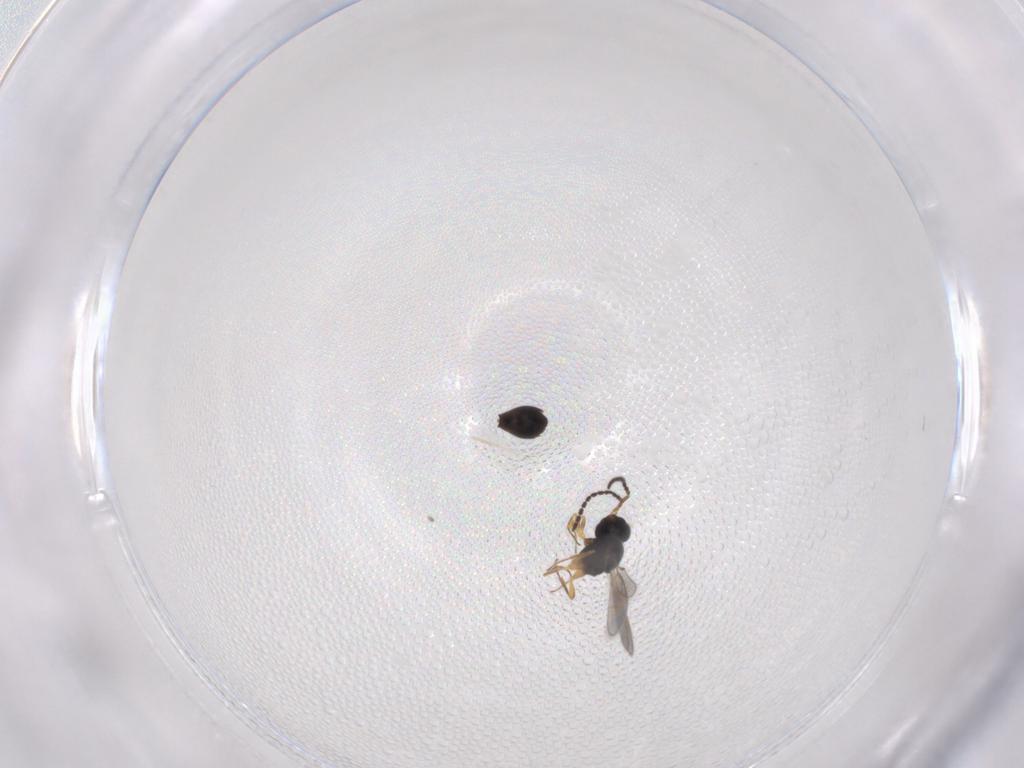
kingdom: Animalia
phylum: Arthropoda
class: Insecta
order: Hymenoptera
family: Scelionidae
